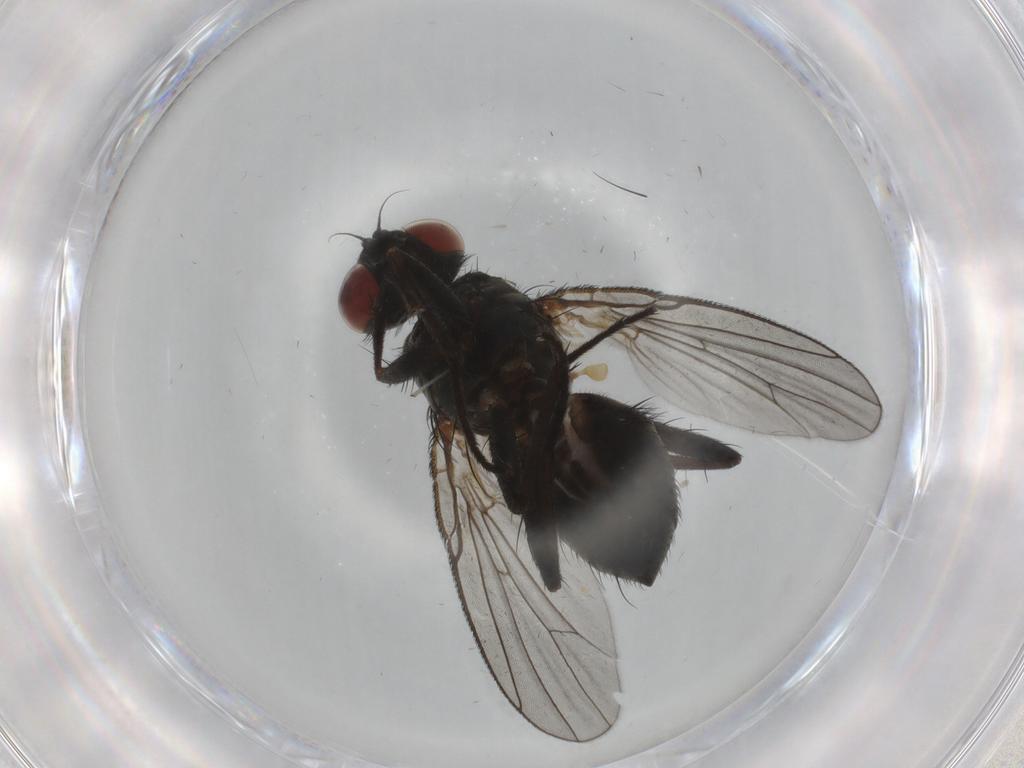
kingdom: Animalia
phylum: Arthropoda
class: Insecta
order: Diptera
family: Muscidae
